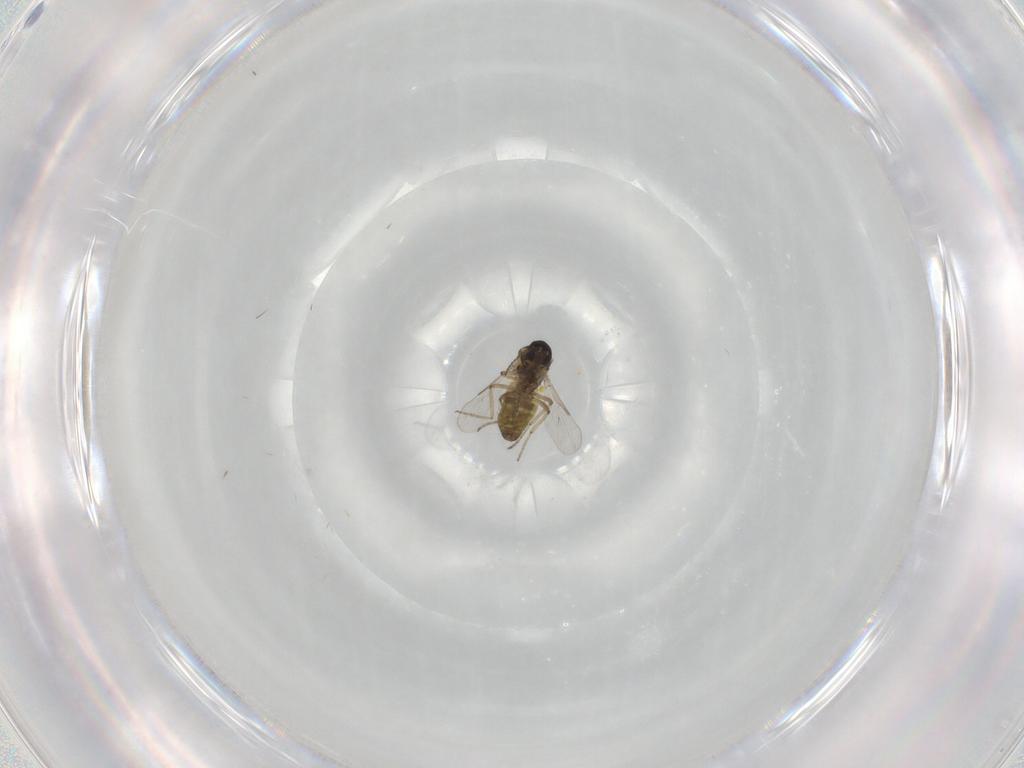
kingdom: Animalia
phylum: Arthropoda
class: Insecta
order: Diptera
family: Ceratopogonidae
